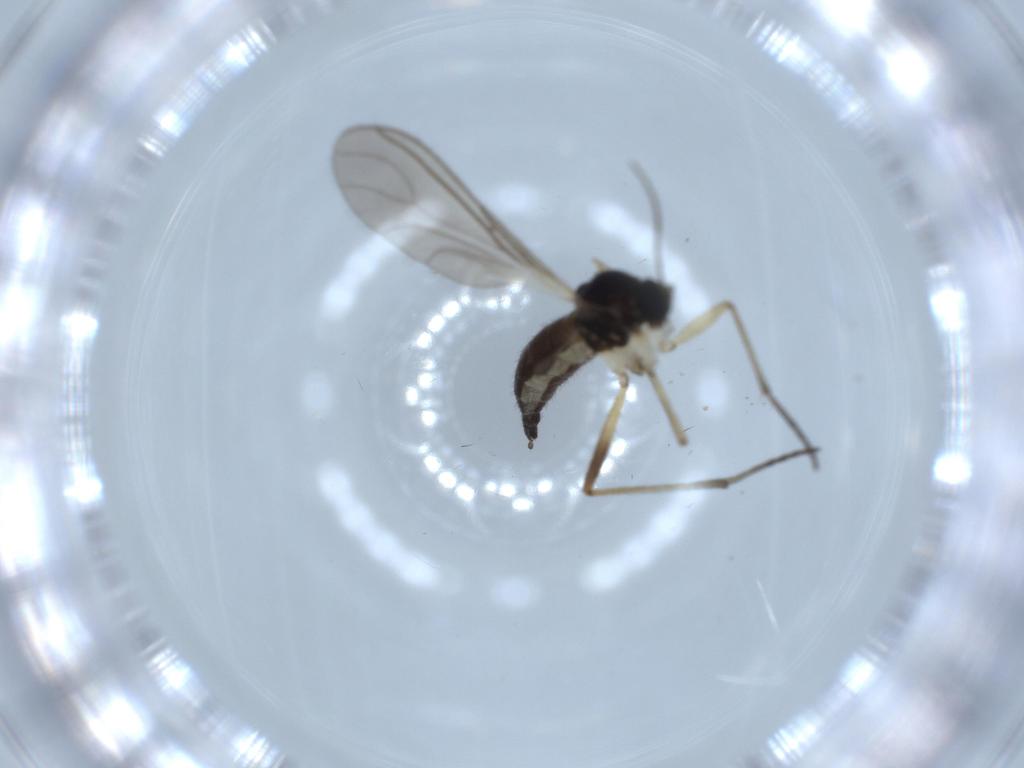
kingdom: Animalia
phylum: Arthropoda
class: Insecta
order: Diptera
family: Sciaridae
